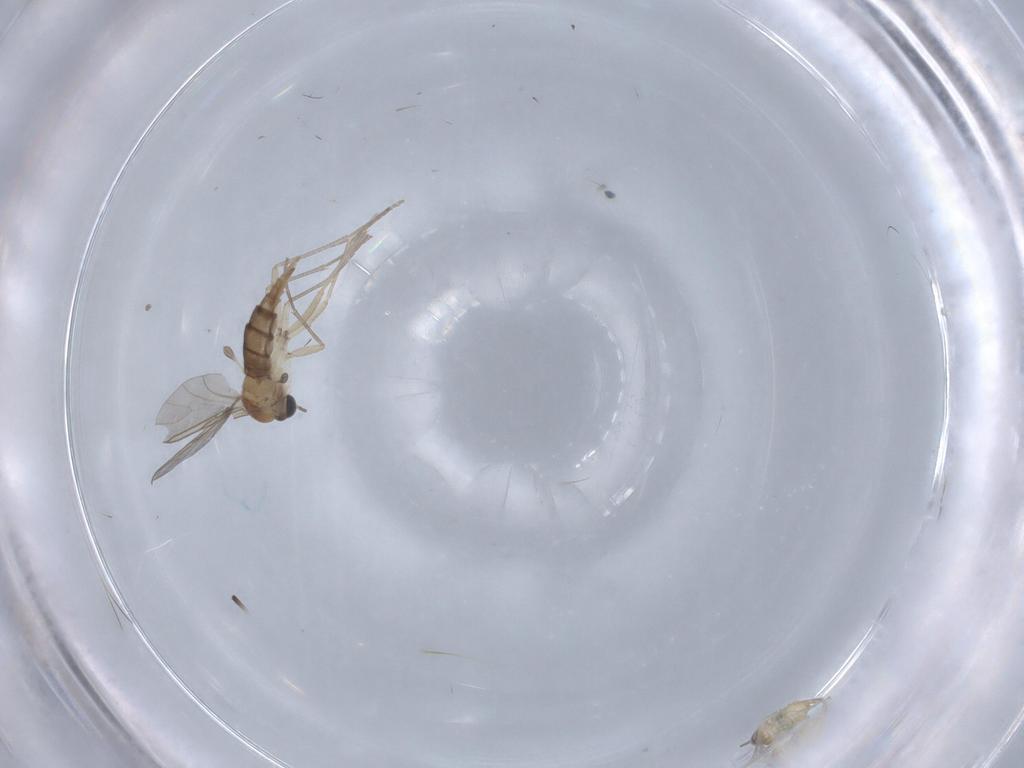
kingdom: Animalia
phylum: Arthropoda
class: Insecta
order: Diptera
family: Sciaridae
